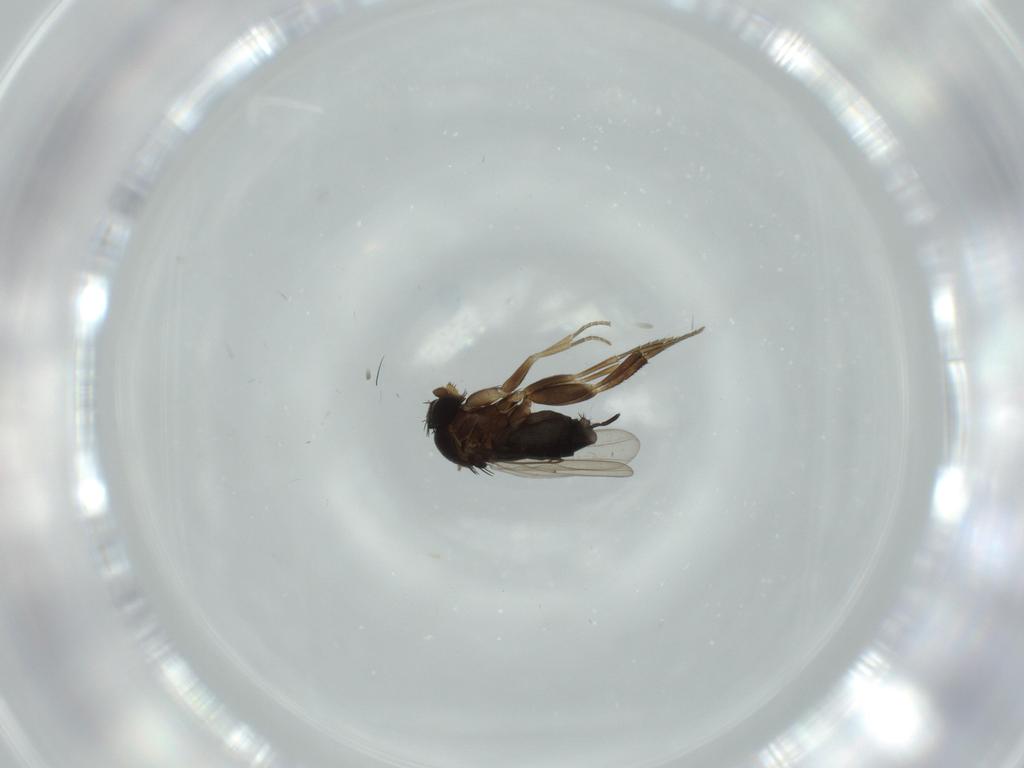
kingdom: Animalia
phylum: Arthropoda
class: Insecta
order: Diptera
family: Phoridae
